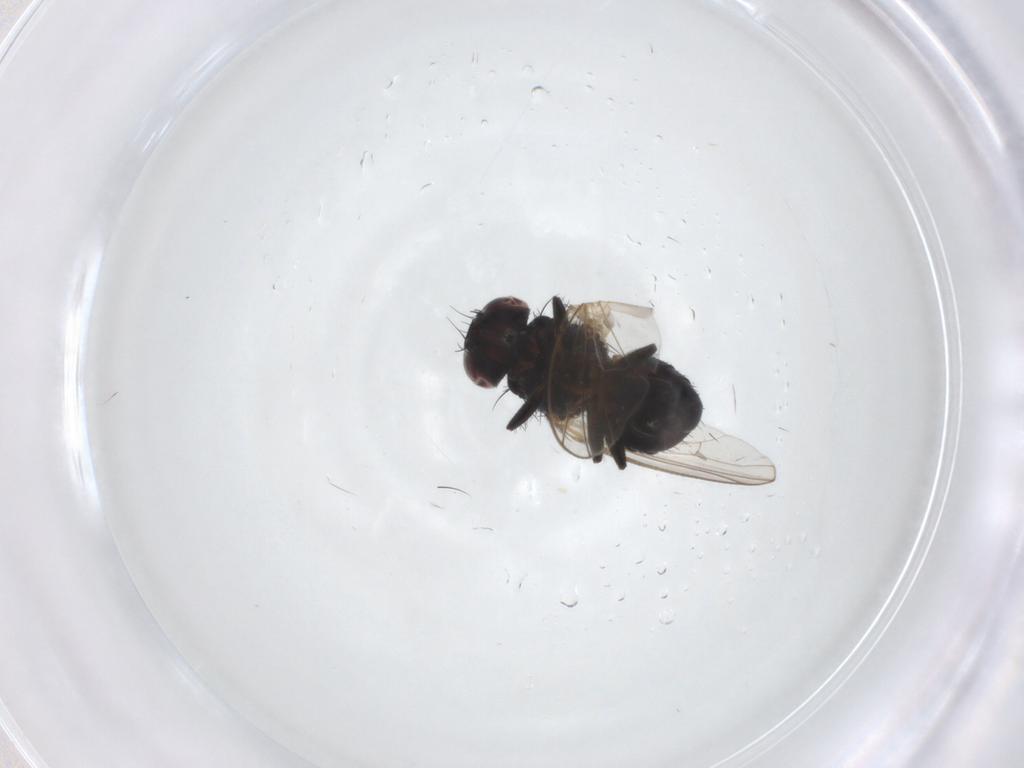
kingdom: Animalia
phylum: Arthropoda
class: Insecta
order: Diptera
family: Carnidae
